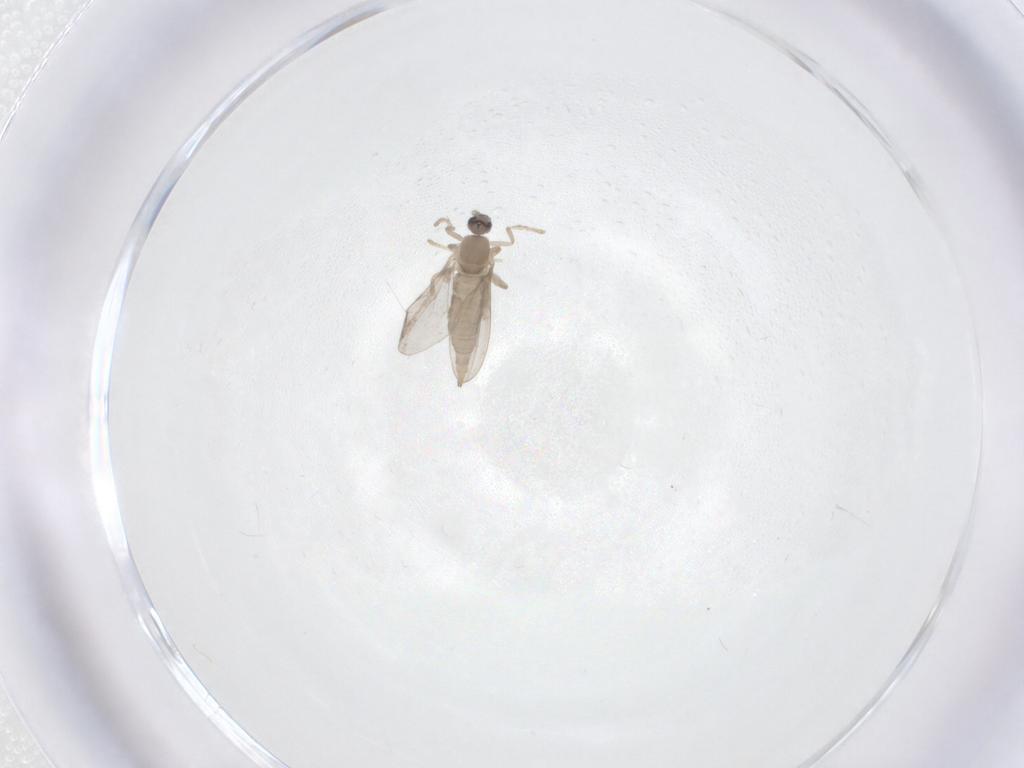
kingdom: Animalia
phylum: Arthropoda
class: Insecta
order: Diptera
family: Cecidomyiidae
